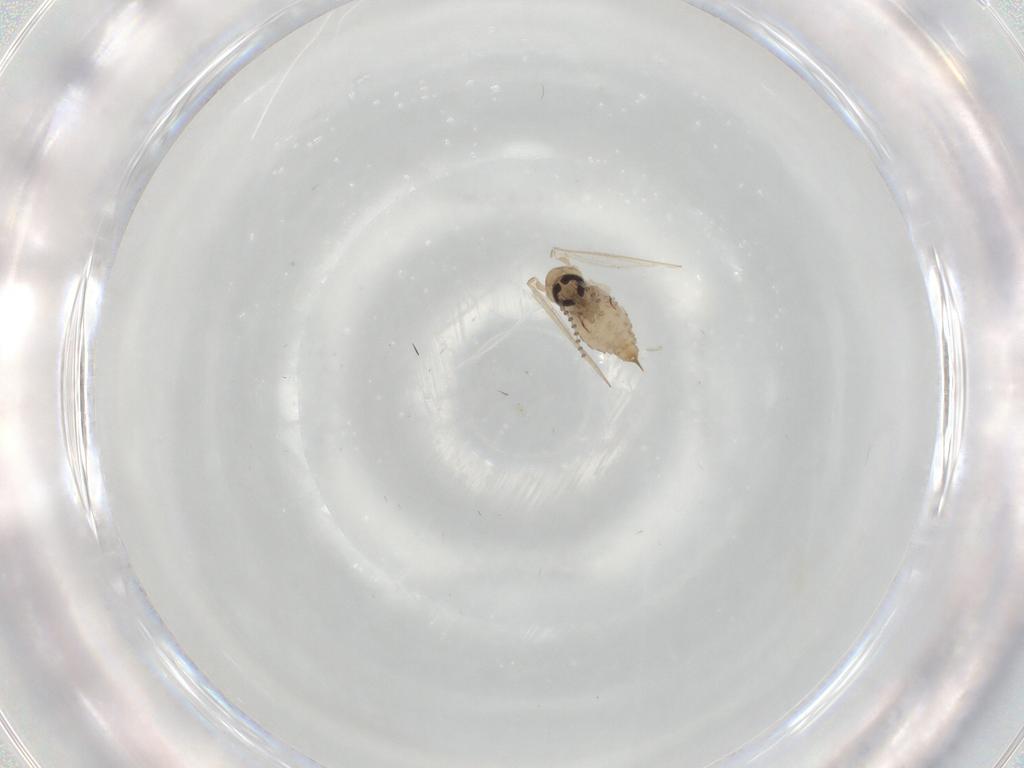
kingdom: Animalia
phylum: Arthropoda
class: Insecta
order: Diptera
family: Psychodidae
